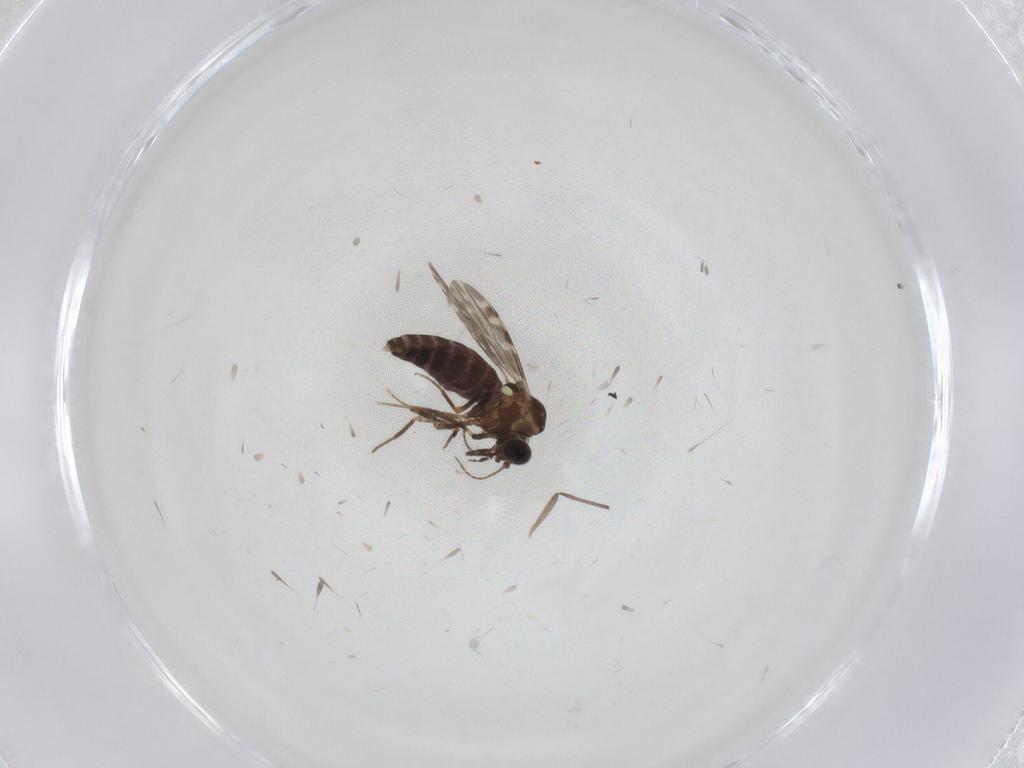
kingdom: Animalia
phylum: Arthropoda
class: Insecta
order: Diptera
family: Ceratopogonidae
